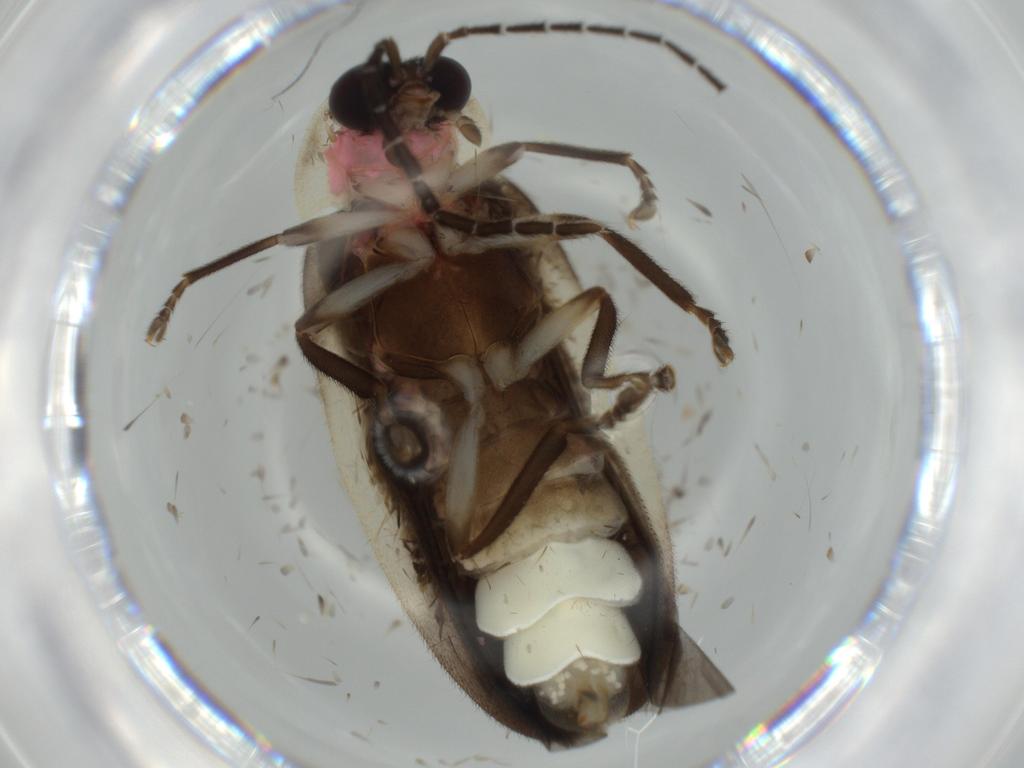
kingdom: Animalia
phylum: Arthropoda
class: Insecta
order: Coleoptera
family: Lampyridae
